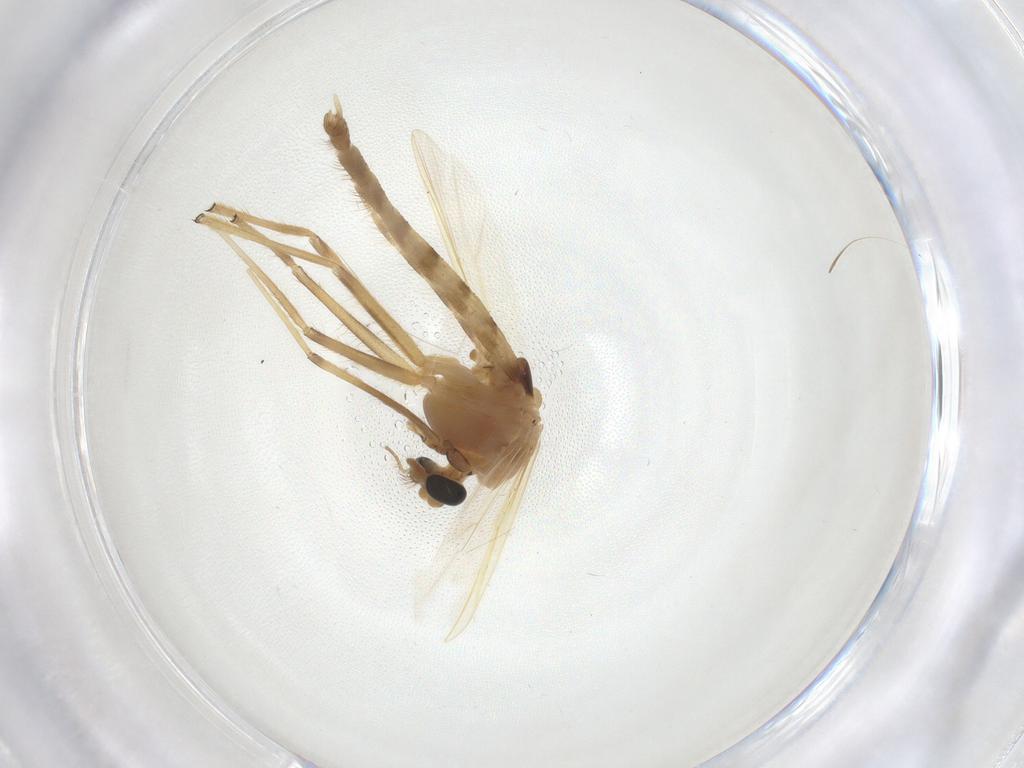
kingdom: Animalia
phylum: Arthropoda
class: Insecta
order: Diptera
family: Chironomidae
